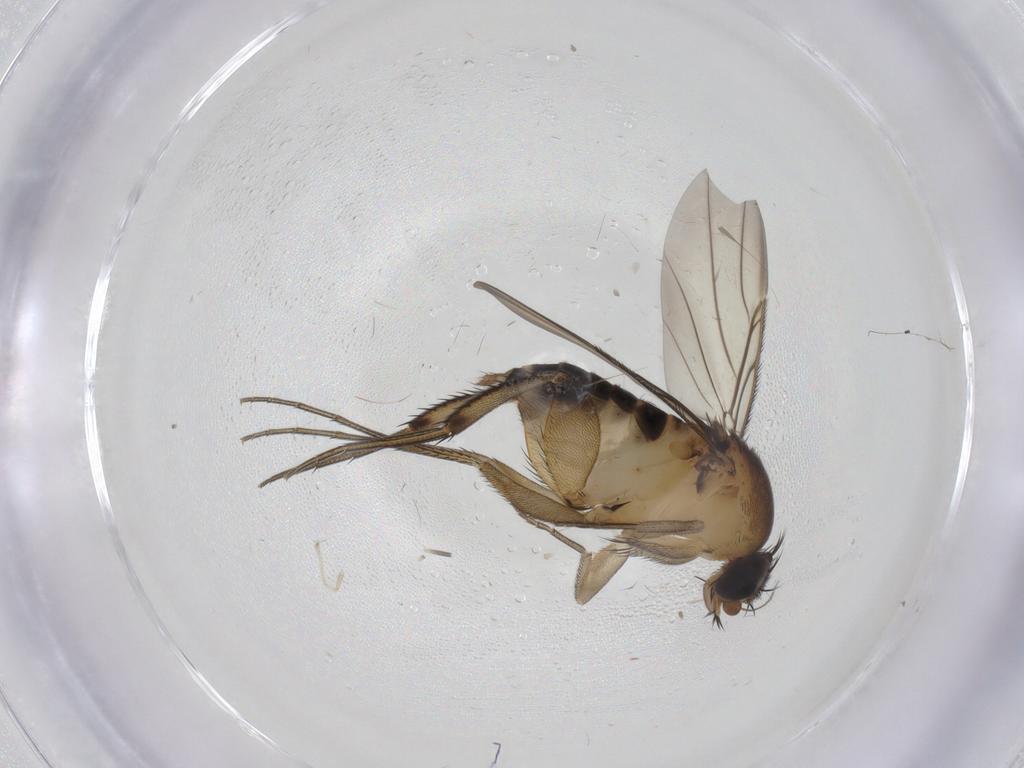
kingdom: Animalia
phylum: Arthropoda
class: Insecta
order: Diptera
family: Phoridae
